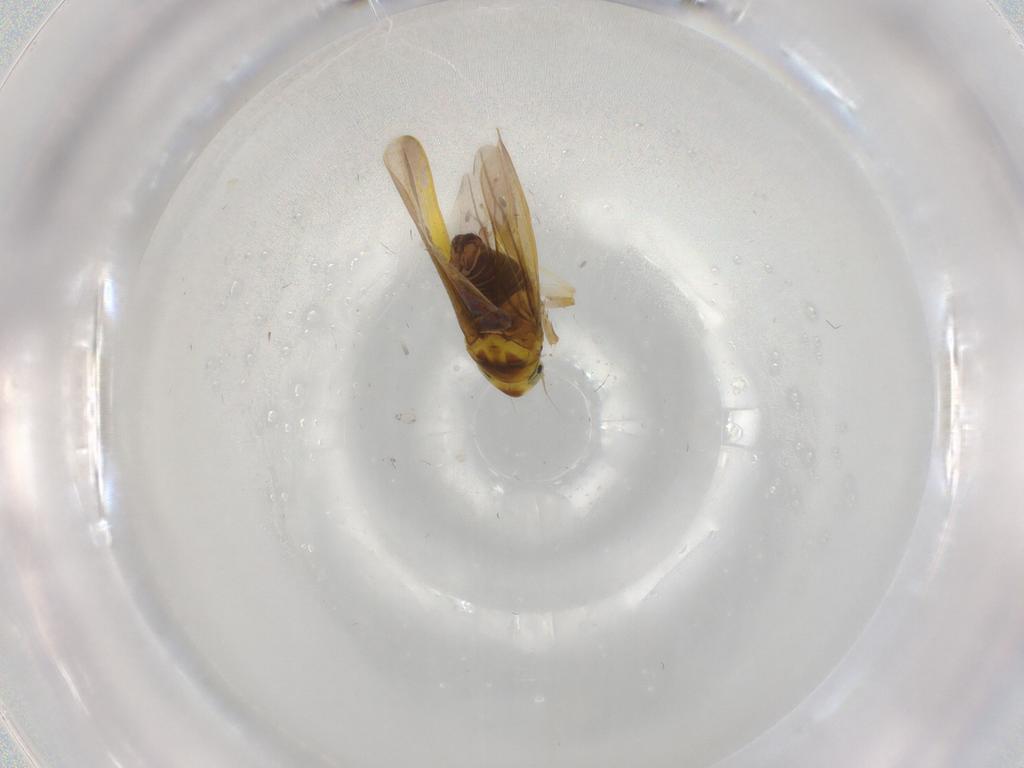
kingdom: Animalia
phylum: Arthropoda
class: Insecta
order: Hemiptera
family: Cicadellidae
